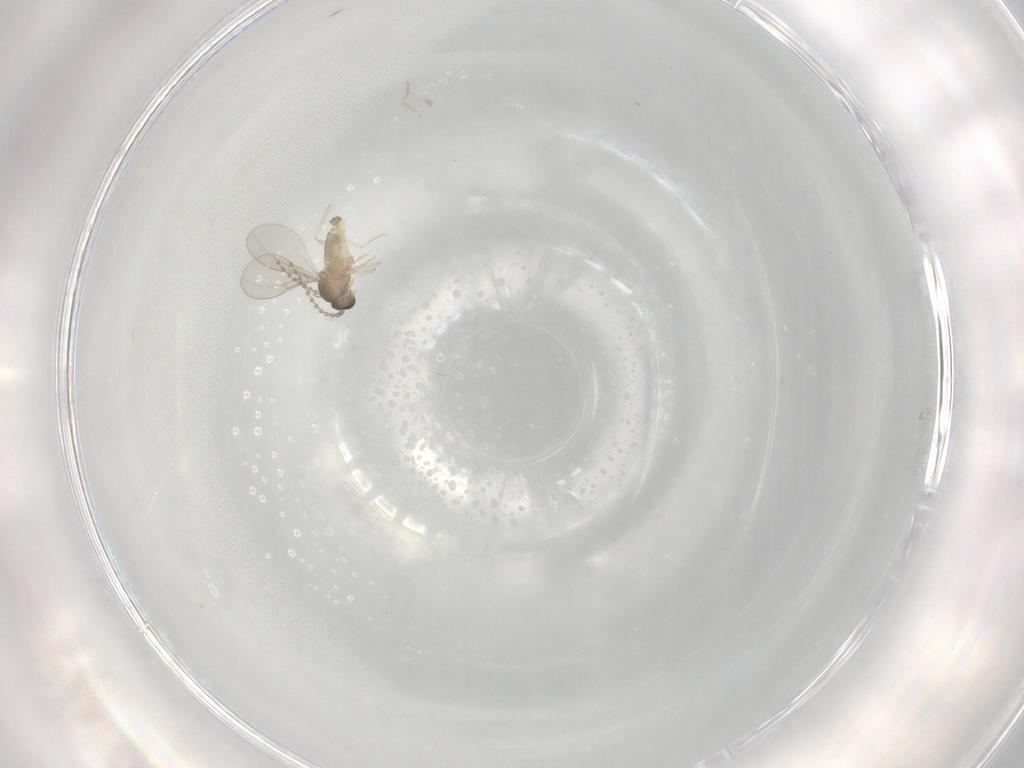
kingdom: Animalia
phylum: Arthropoda
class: Insecta
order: Diptera
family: Cecidomyiidae
